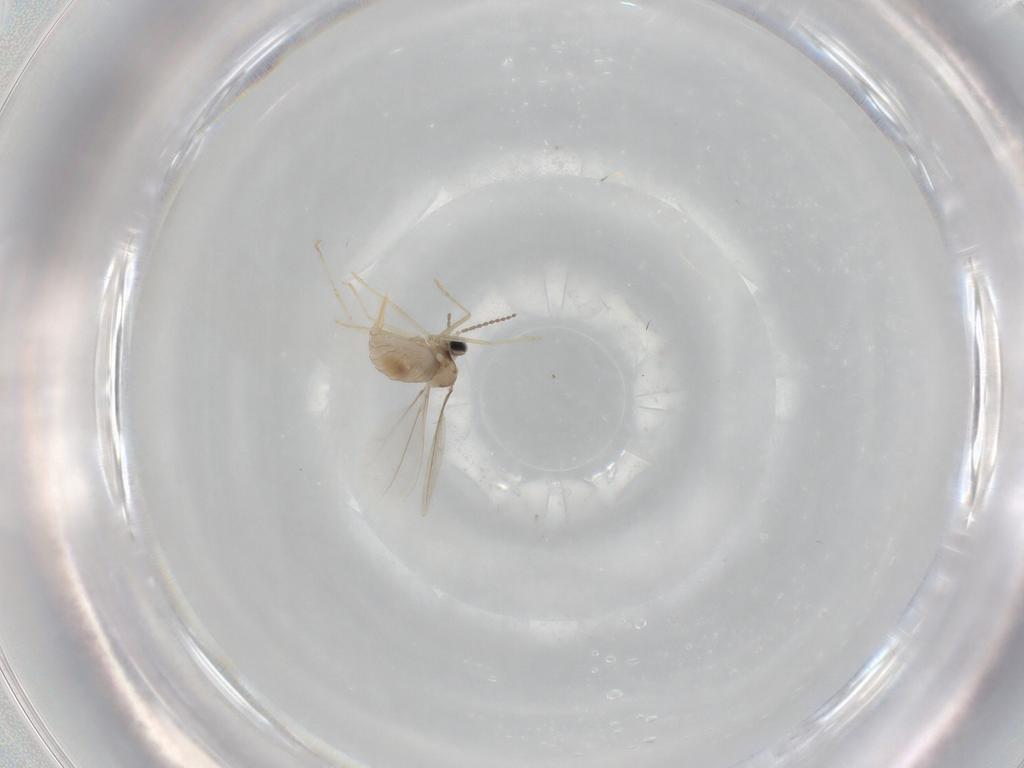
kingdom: Animalia
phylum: Arthropoda
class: Insecta
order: Diptera
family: Cecidomyiidae
